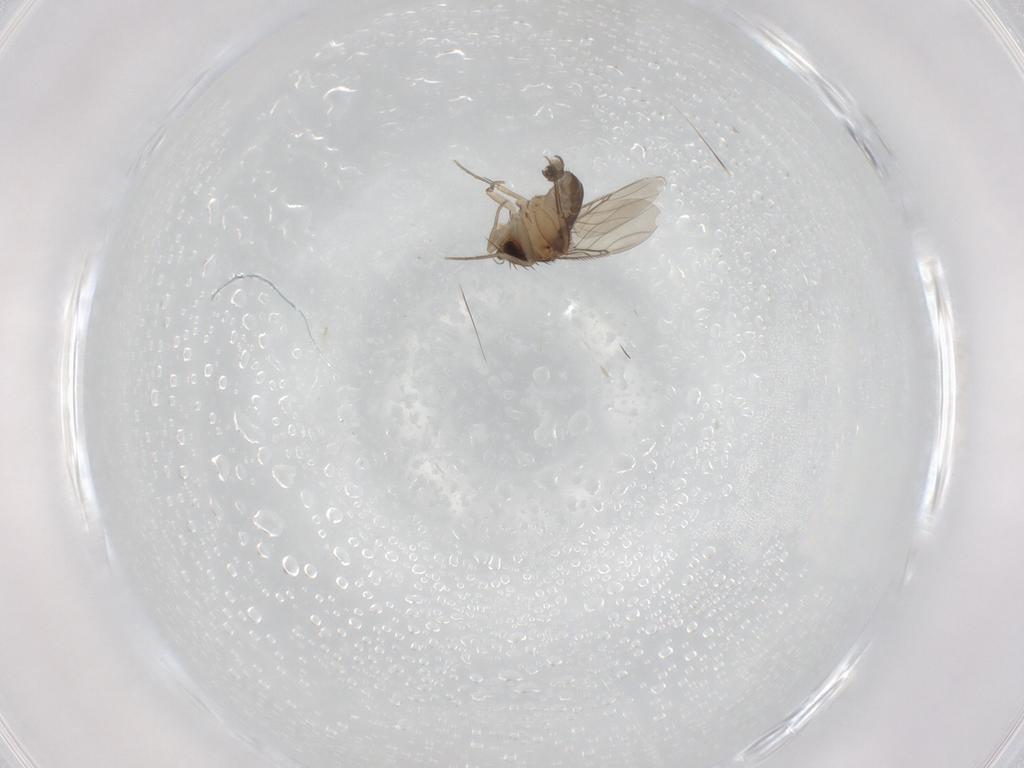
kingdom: Animalia
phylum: Arthropoda
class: Insecta
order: Diptera
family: Phoridae
